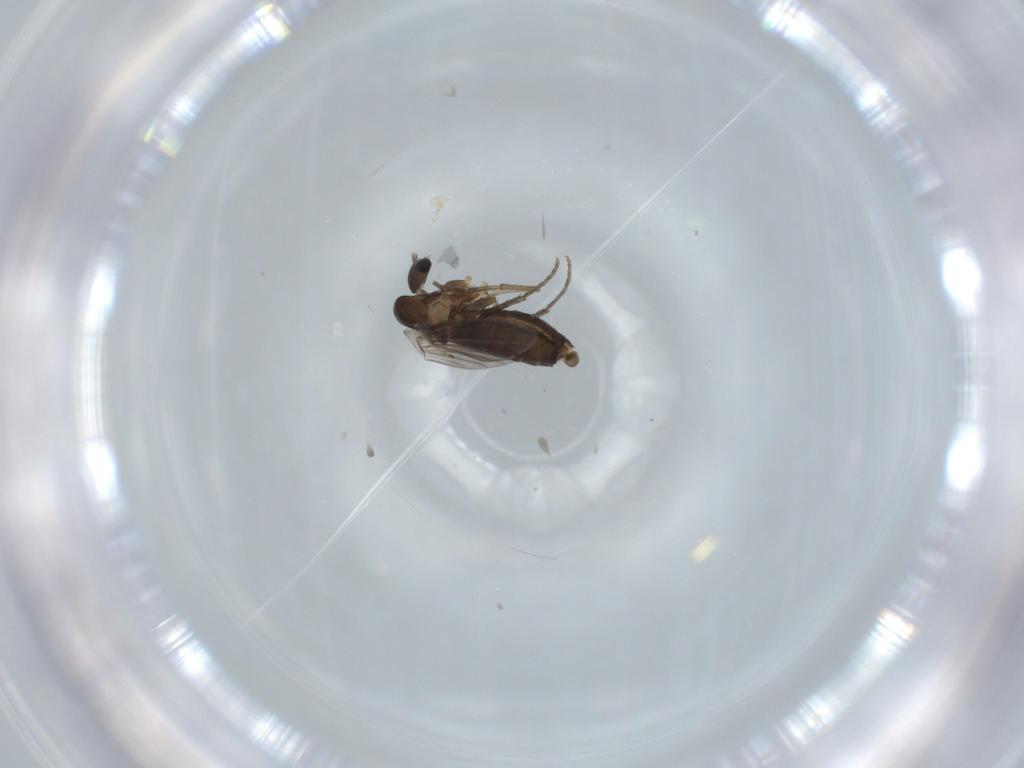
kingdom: Animalia
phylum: Arthropoda
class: Insecta
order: Diptera
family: Sciaridae
